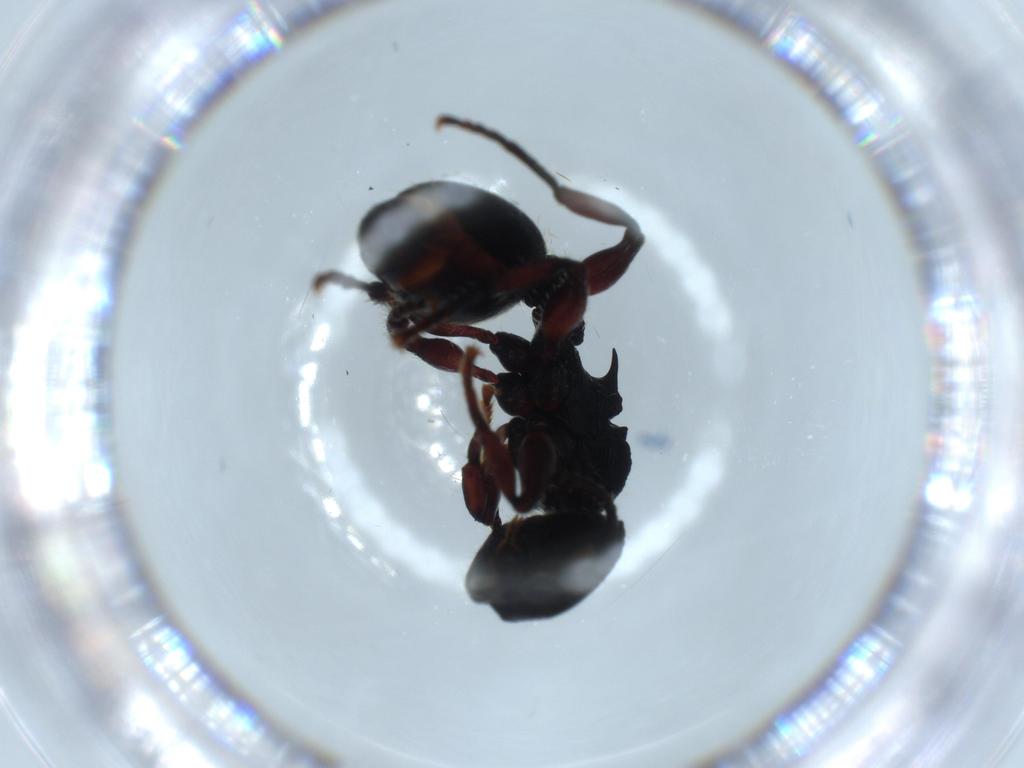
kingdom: Animalia
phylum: Arthropoda
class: Insecta
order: Hymenoptera
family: Formicidae
